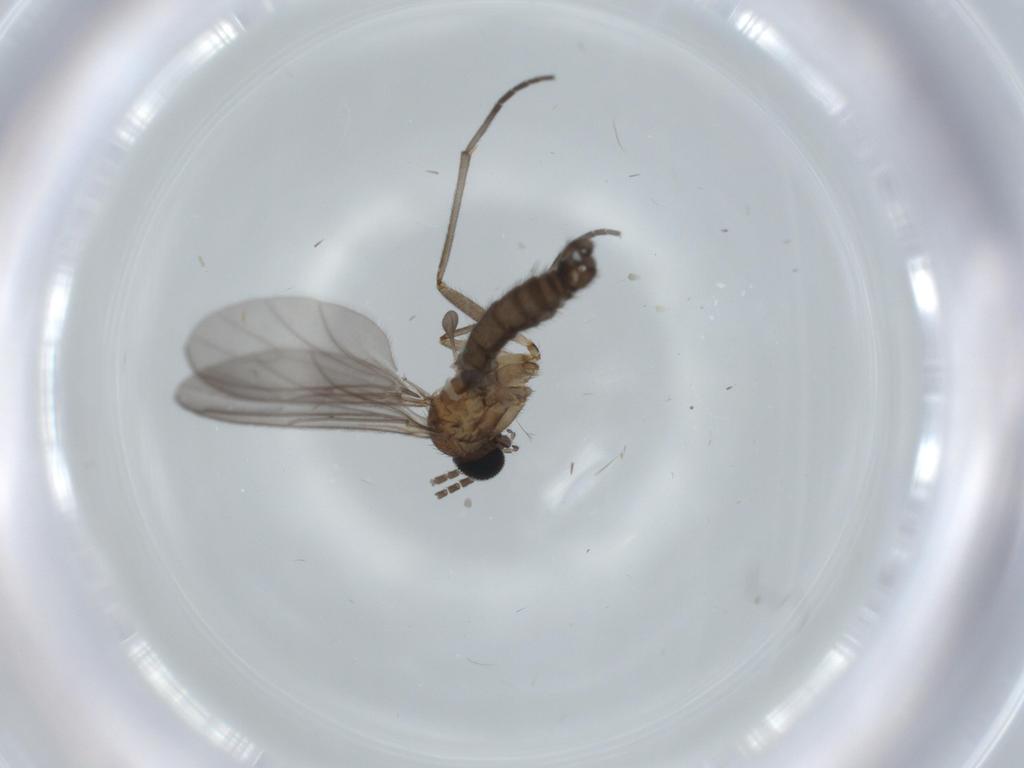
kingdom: Animalia
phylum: Arthropoda
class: Insecta
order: Diptera
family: Sciaridae
